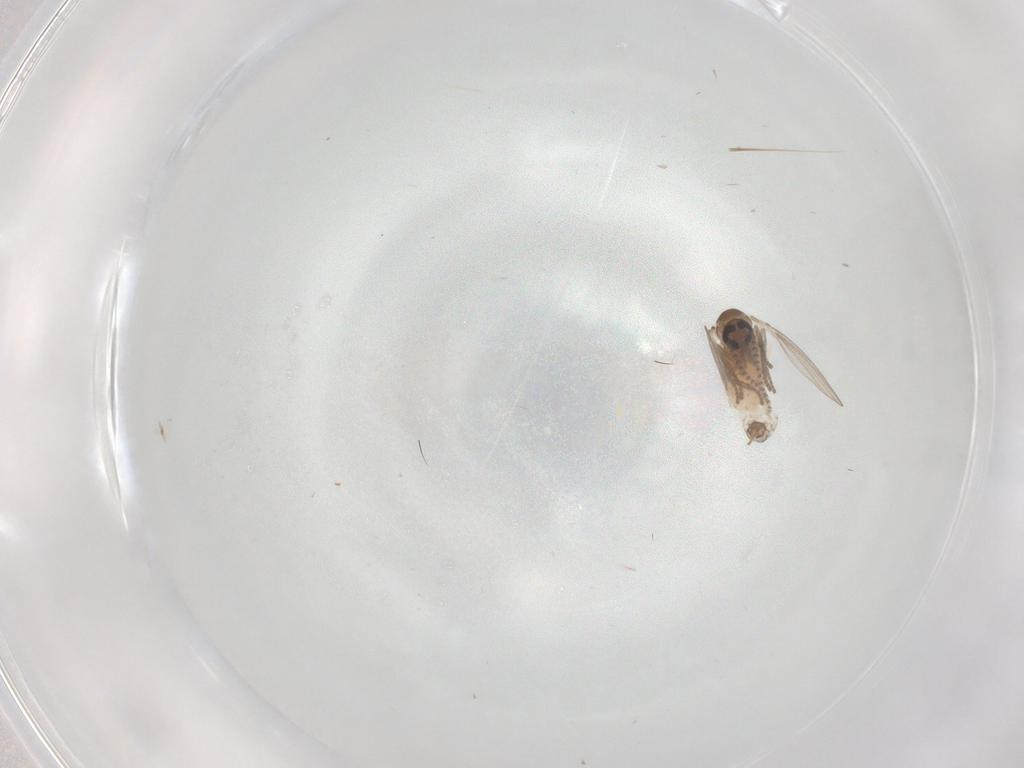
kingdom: Animalia
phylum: Arthropoda
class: Insecta
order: Diptera
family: Psychodidae
